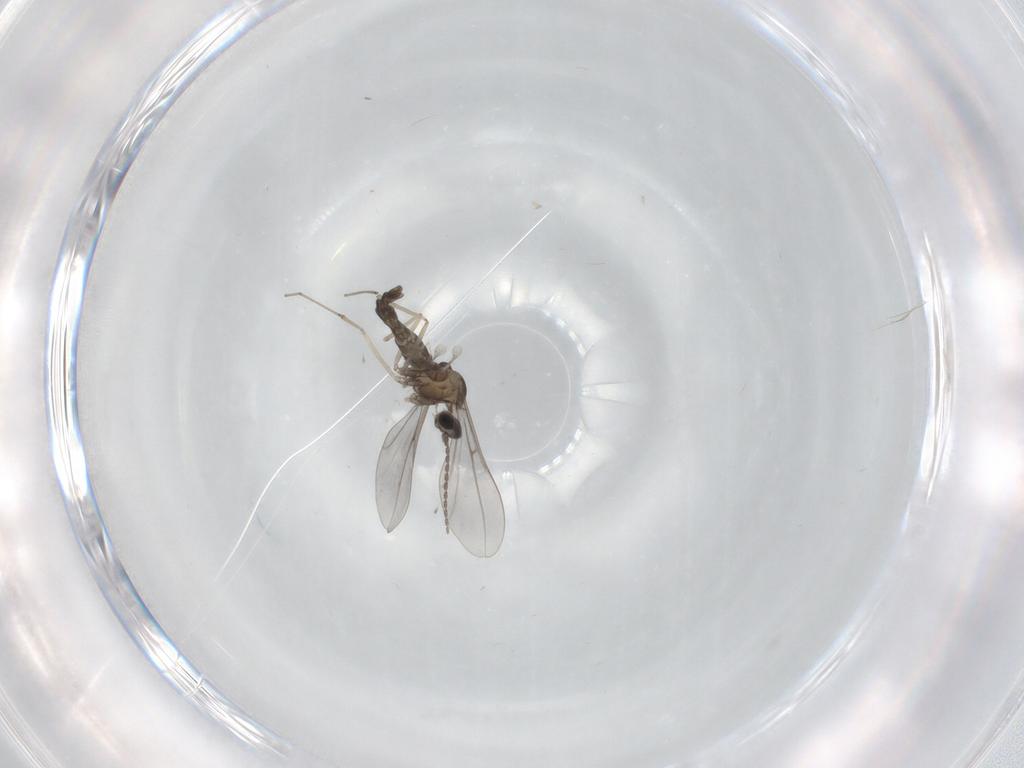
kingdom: Animalia
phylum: Arthropoda
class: Insecta
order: Diptera
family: Cecidomyiidae
